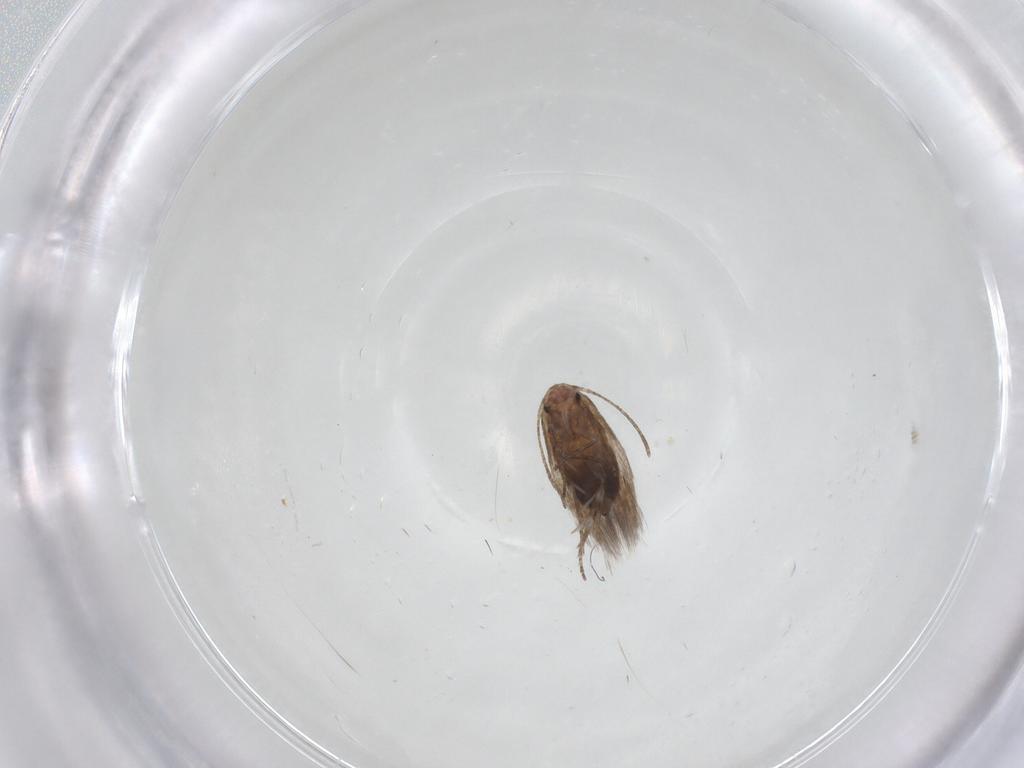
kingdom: Animalia
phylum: Arthropoda
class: Insecta
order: Lepidoptera
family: Lyonetiidae
